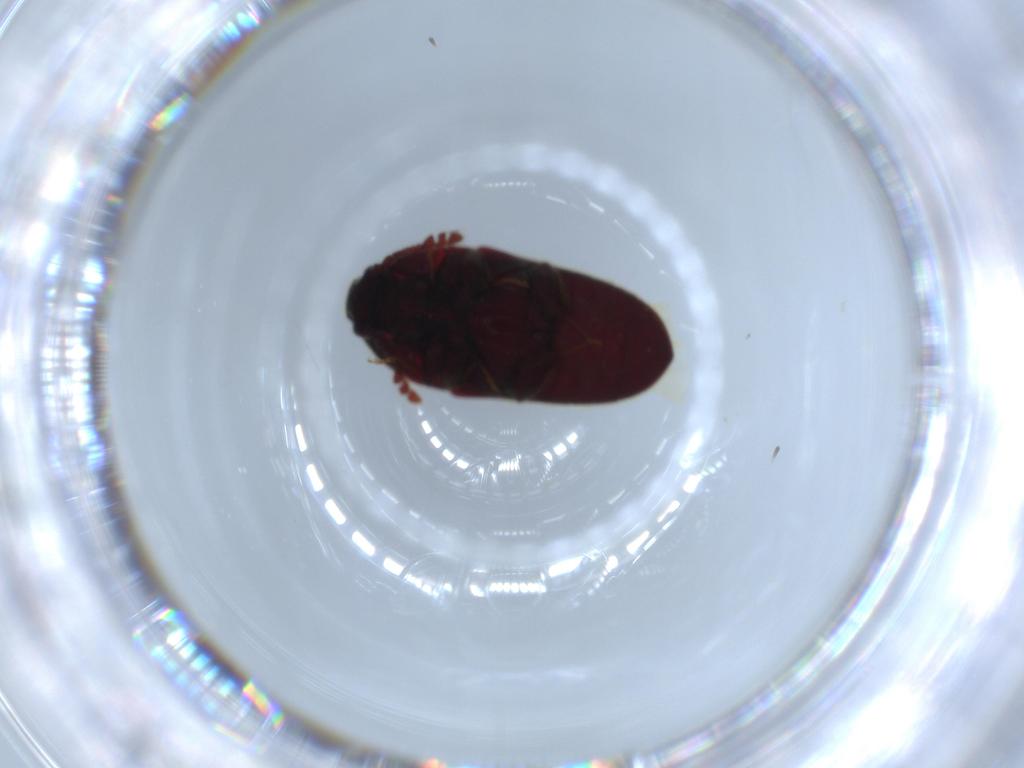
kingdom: Animalia
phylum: Arthropoda
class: Insecta
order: Coleoptera
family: Throscidae
